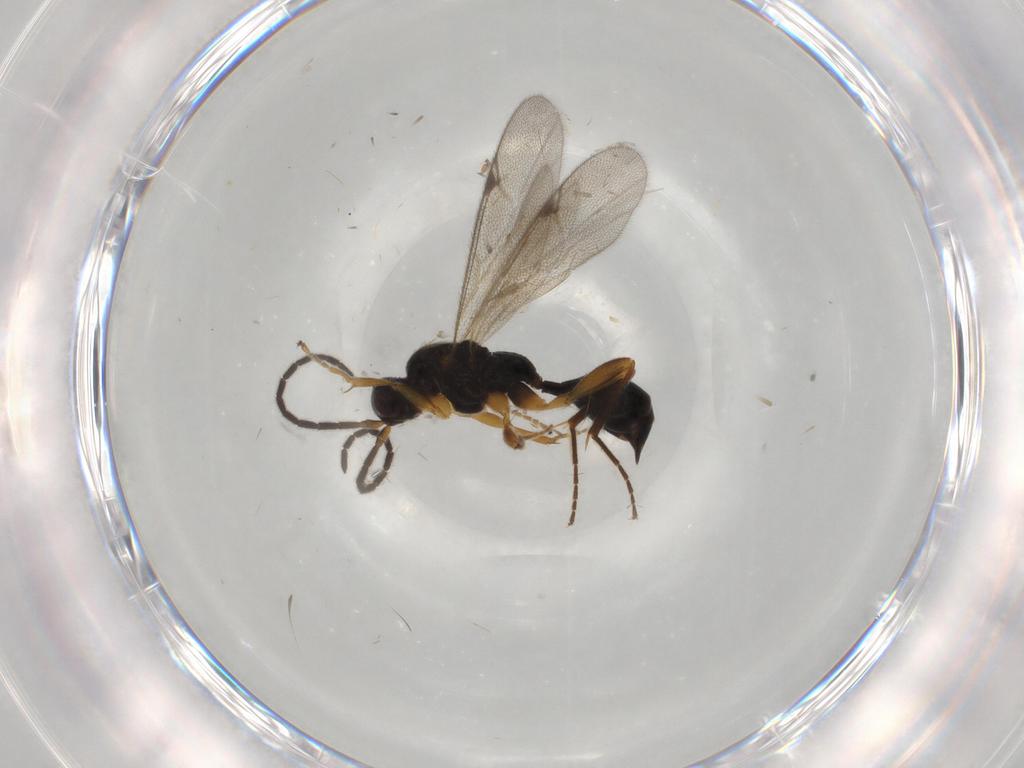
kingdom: Animalia
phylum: Arthropoda
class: Insecta
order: Hymenoptera
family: Proctotrupidae
